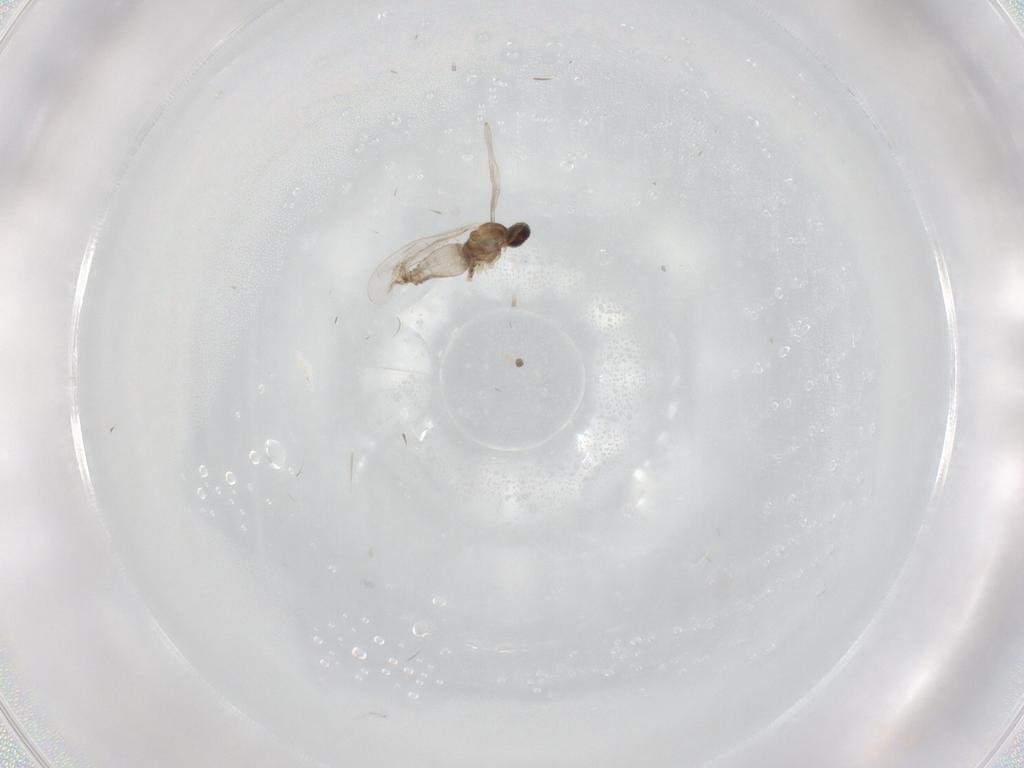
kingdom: Animalia
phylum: Arthropoda
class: Insecta
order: Diptera
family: Cecidomyiidae
